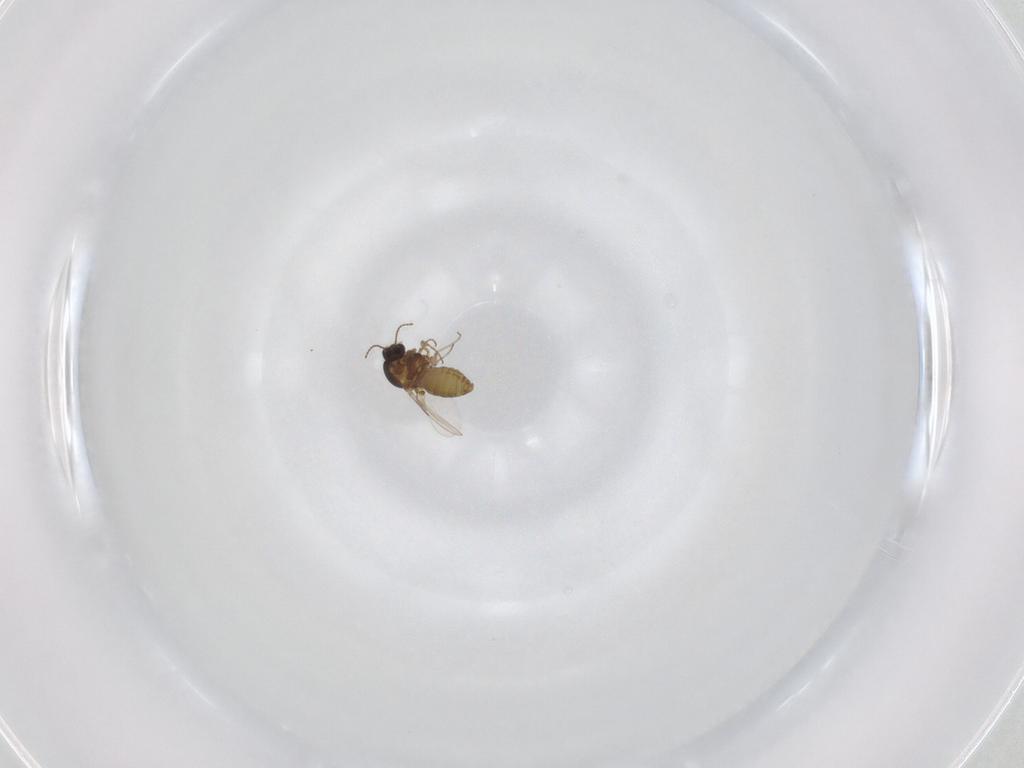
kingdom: Animalia
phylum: Arthropoda
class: Insecta
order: Diptera
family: Ceratopogonidae
